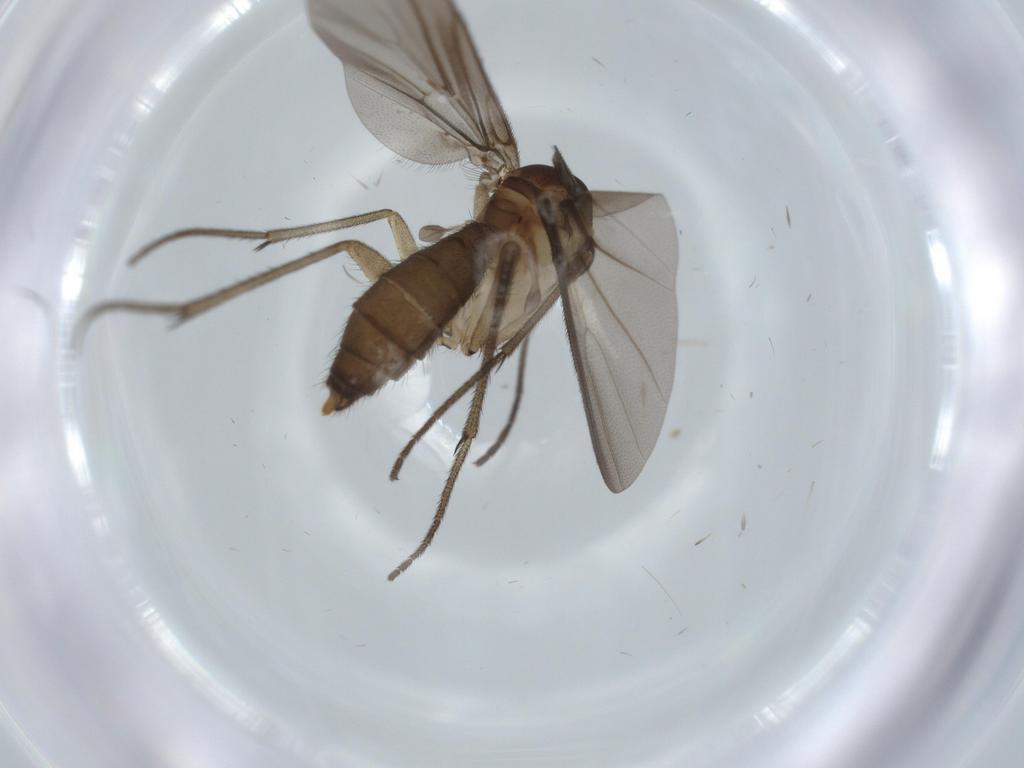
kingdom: Animalia
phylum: Arthropoda
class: Insecta
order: Diptera
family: Sciaridae
